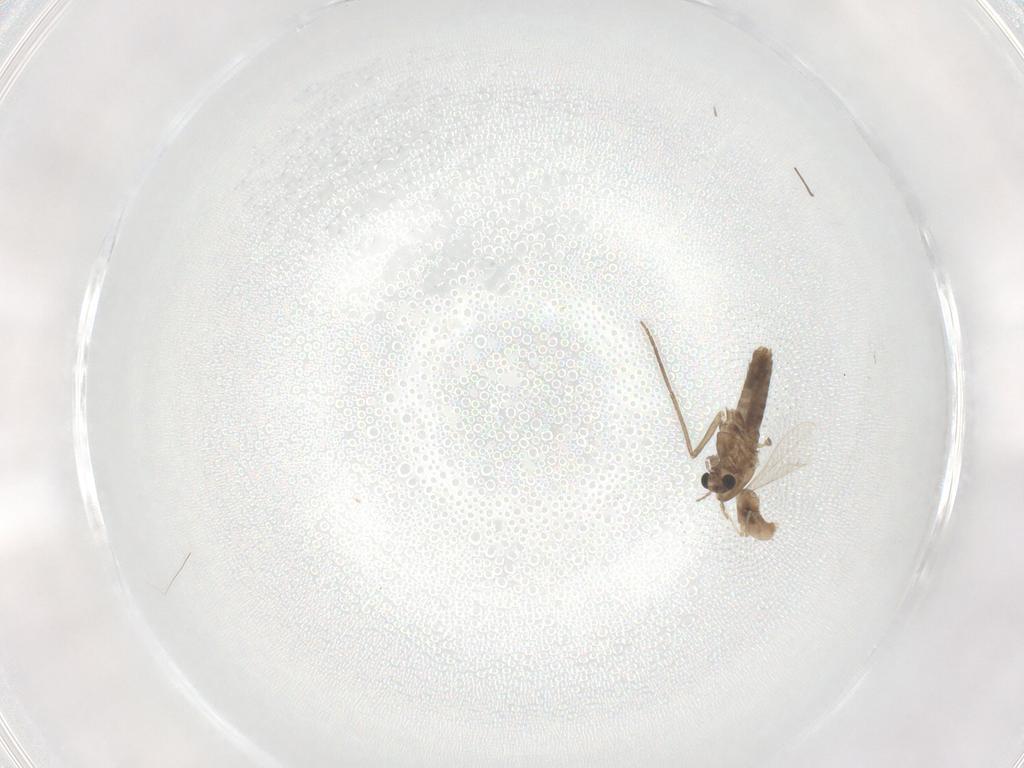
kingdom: Animalia
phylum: Arthropoda
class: Insecta
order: Diptera
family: Cecidomyiidae
